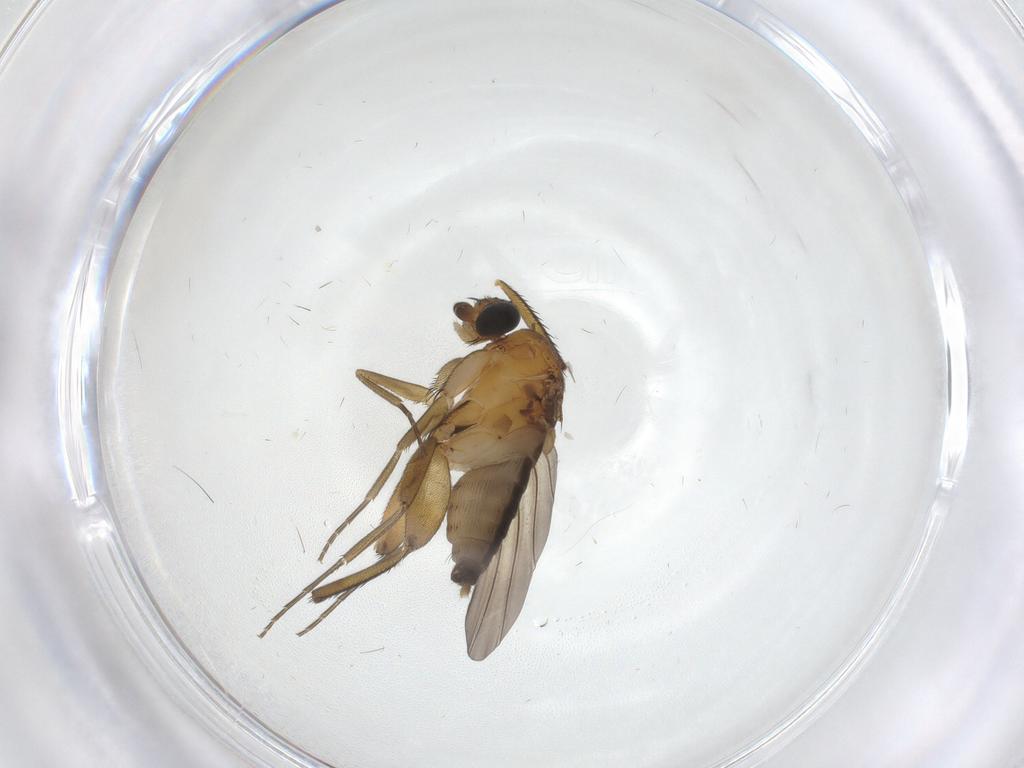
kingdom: Animalia
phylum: Arthropoda
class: Insecta
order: Diptera
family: Phoridae
